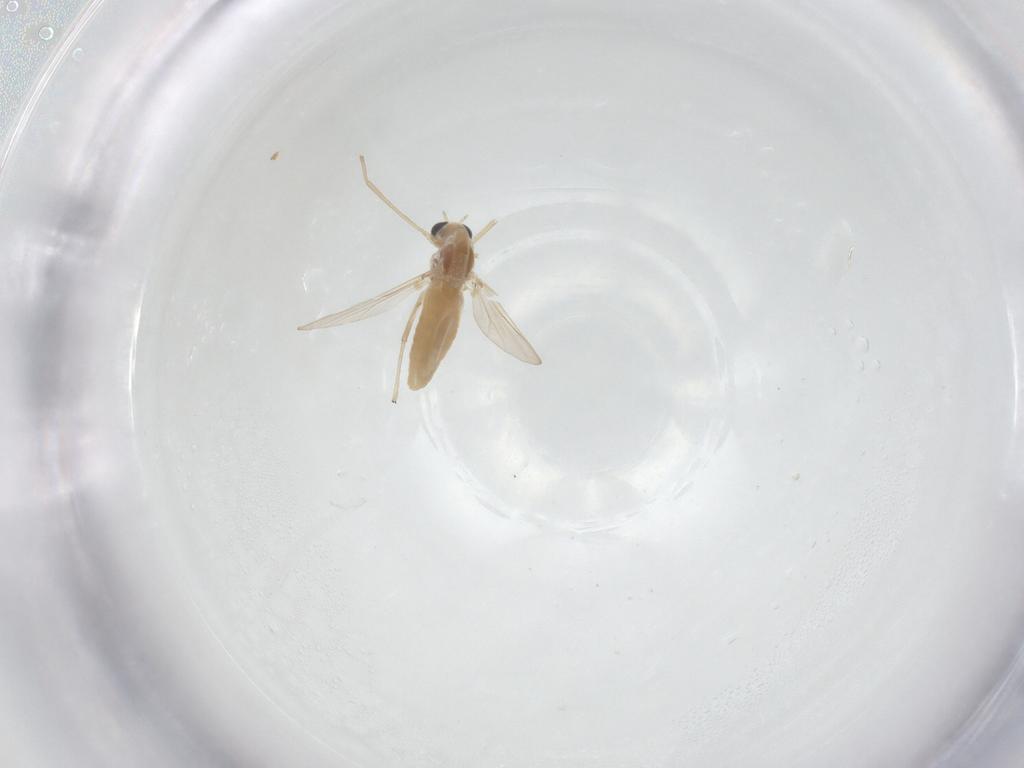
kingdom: Animalia
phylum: Arthropoda
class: Insecta
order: Diptera
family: Chironomidae
